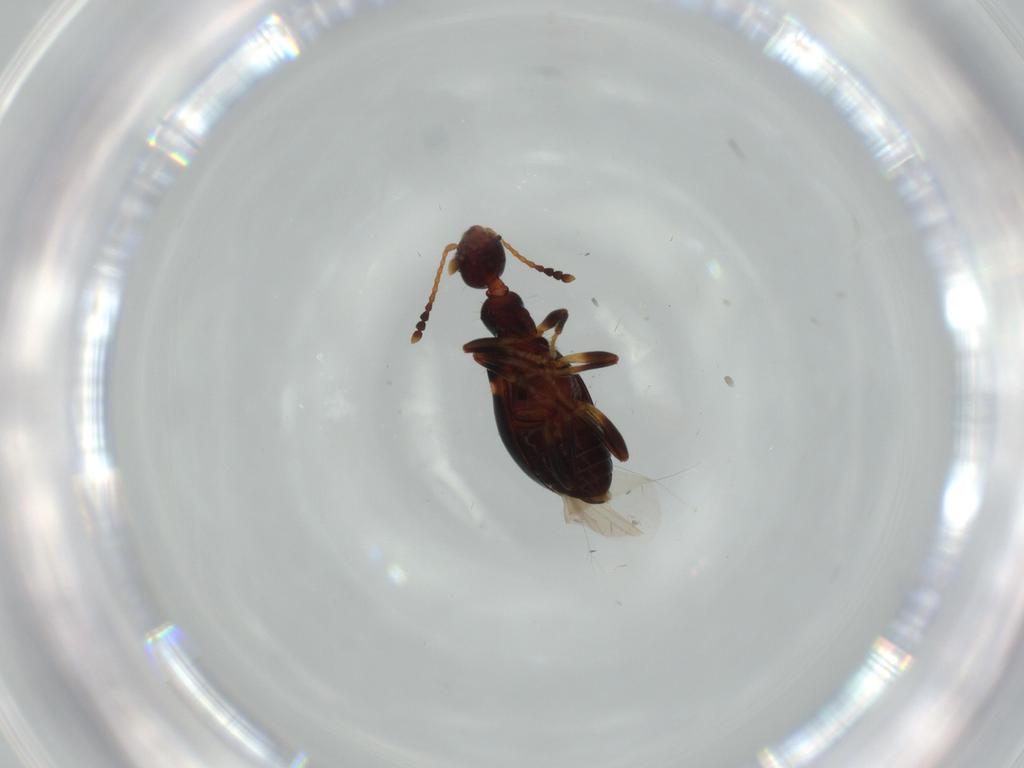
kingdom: Animalia
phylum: Arthropoda
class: Insecta
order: Coleoptera
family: Anthicidae
